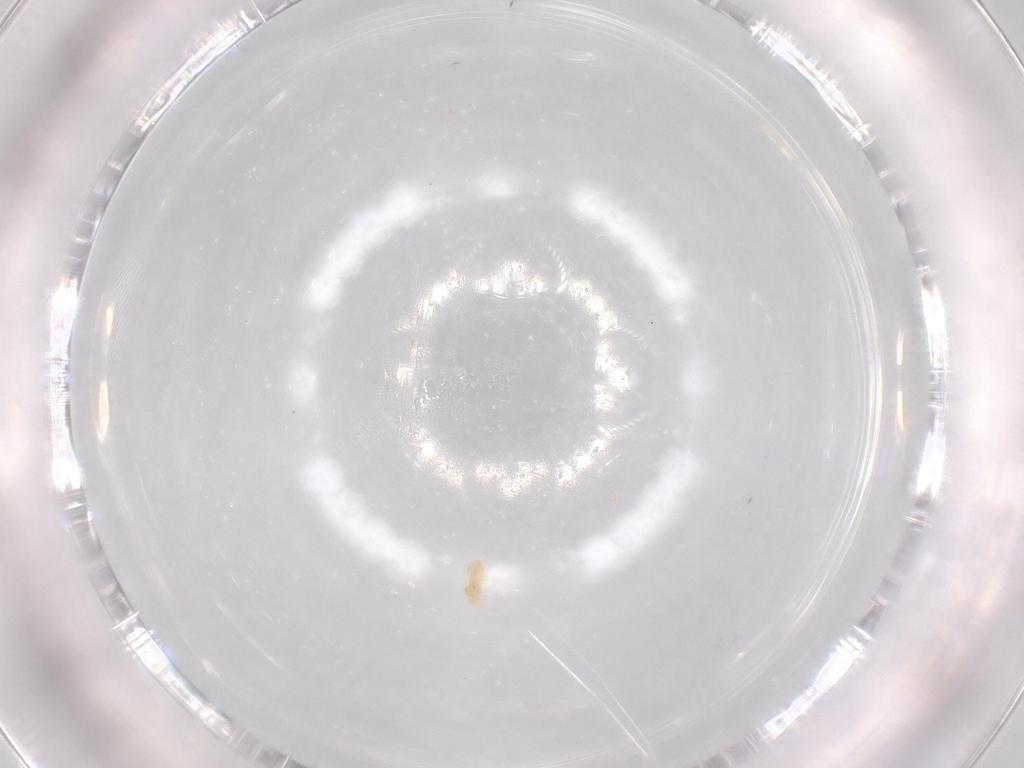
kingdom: Animalia
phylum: Arthropoda
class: Arachnida
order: Trombidiformes
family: Eupodidae
